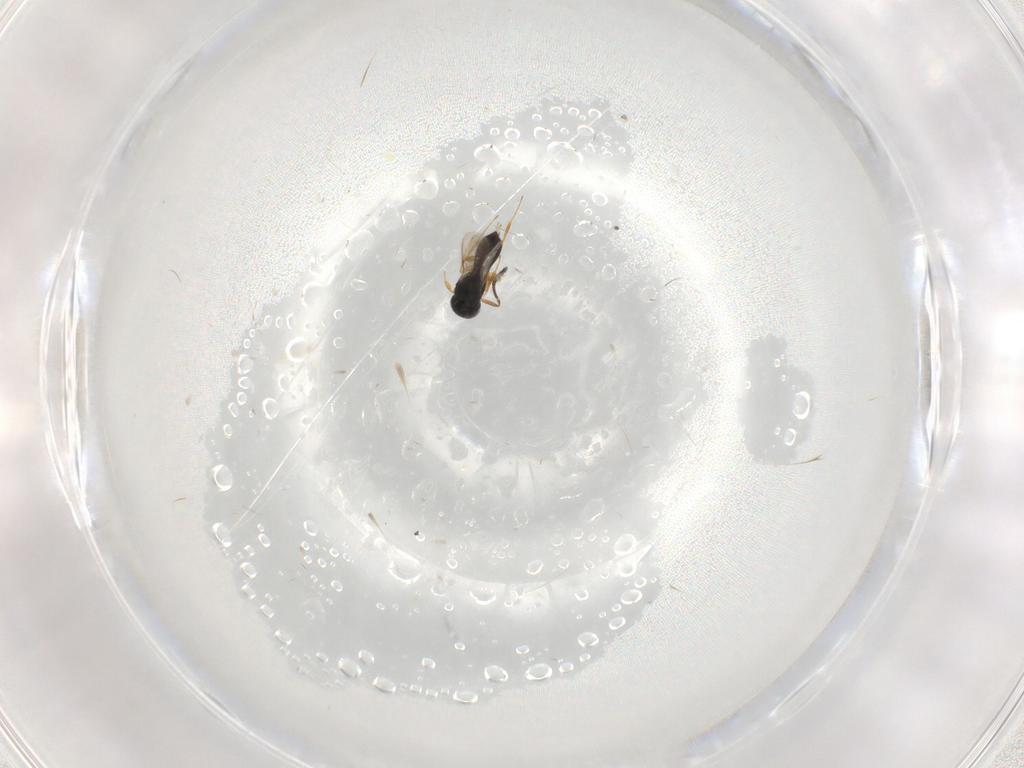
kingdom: Animalia
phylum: Arthropoda
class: Insecta
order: Hymenoptera
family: Scelionidae
